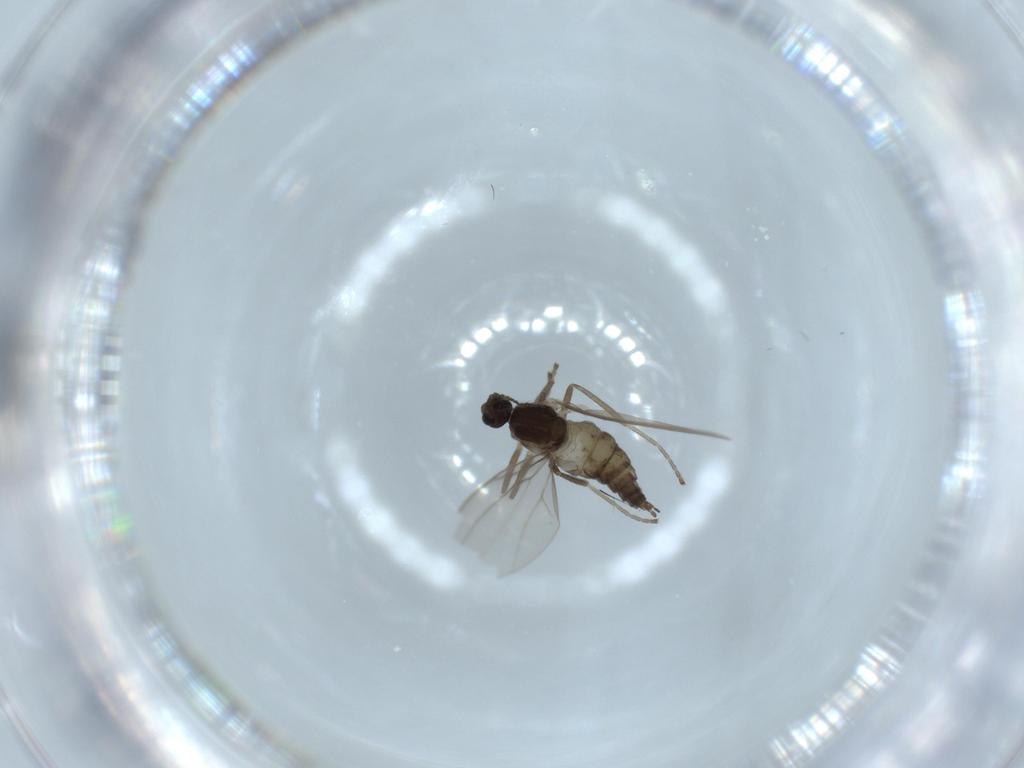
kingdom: Animalia
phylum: Arthropoda
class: Insecta
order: Diptera
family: Cecidomyiidae
